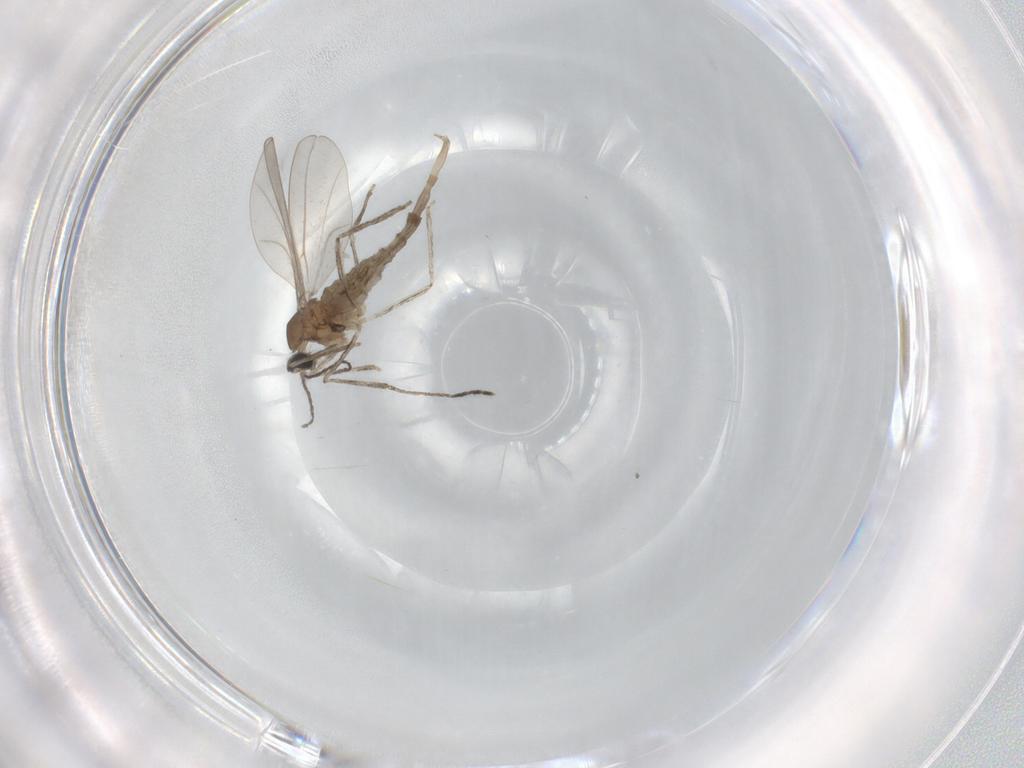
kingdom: Animalia
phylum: Arthropoda
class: Insecta
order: Diptera
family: Cecidomyiidae
